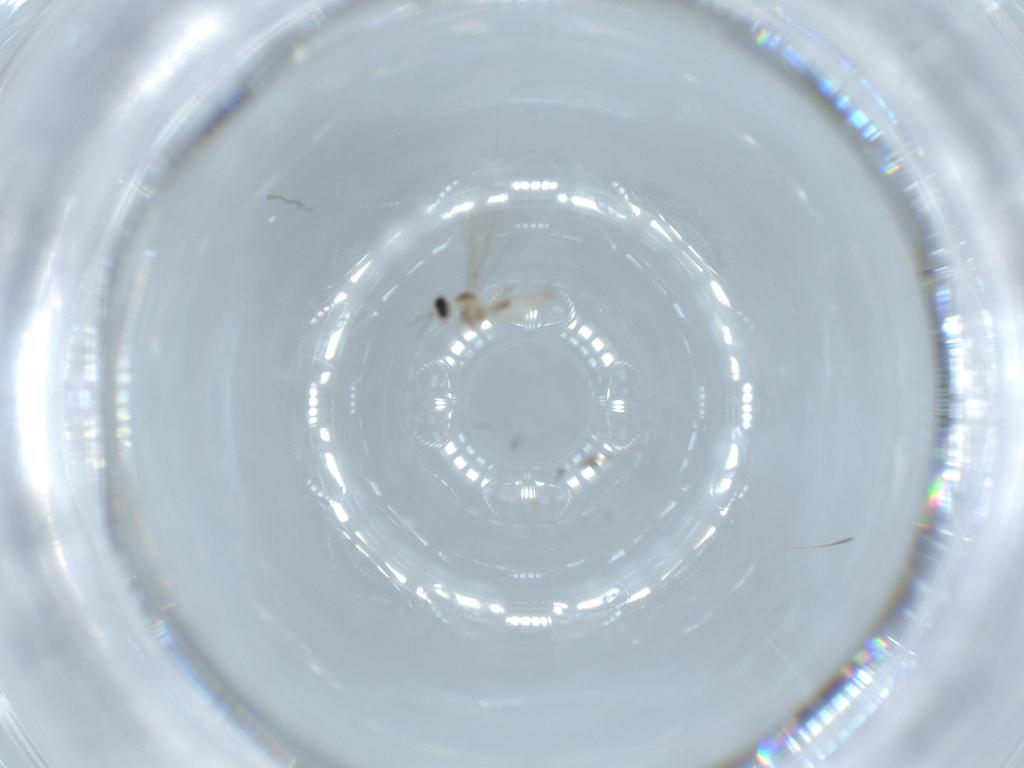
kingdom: Animalia
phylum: Arthropoda
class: Insecta
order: Diptera
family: Cecidomyiidae
